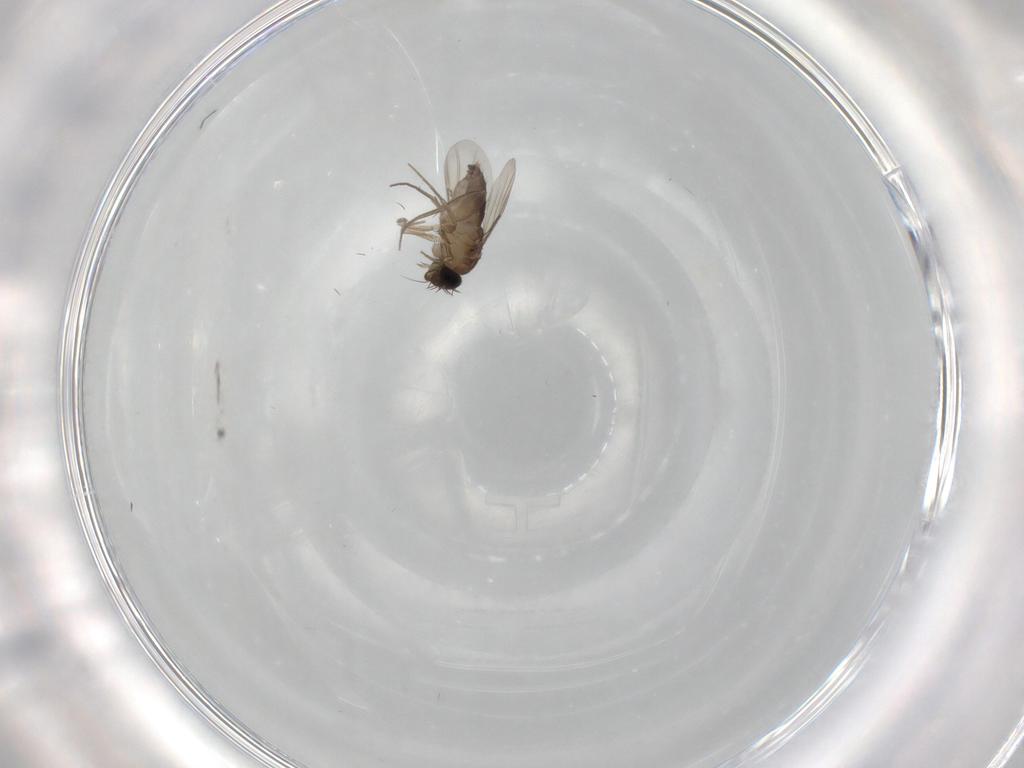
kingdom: Animalia
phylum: Arthropoda
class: Insecta
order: Diptera
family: Phoridae
